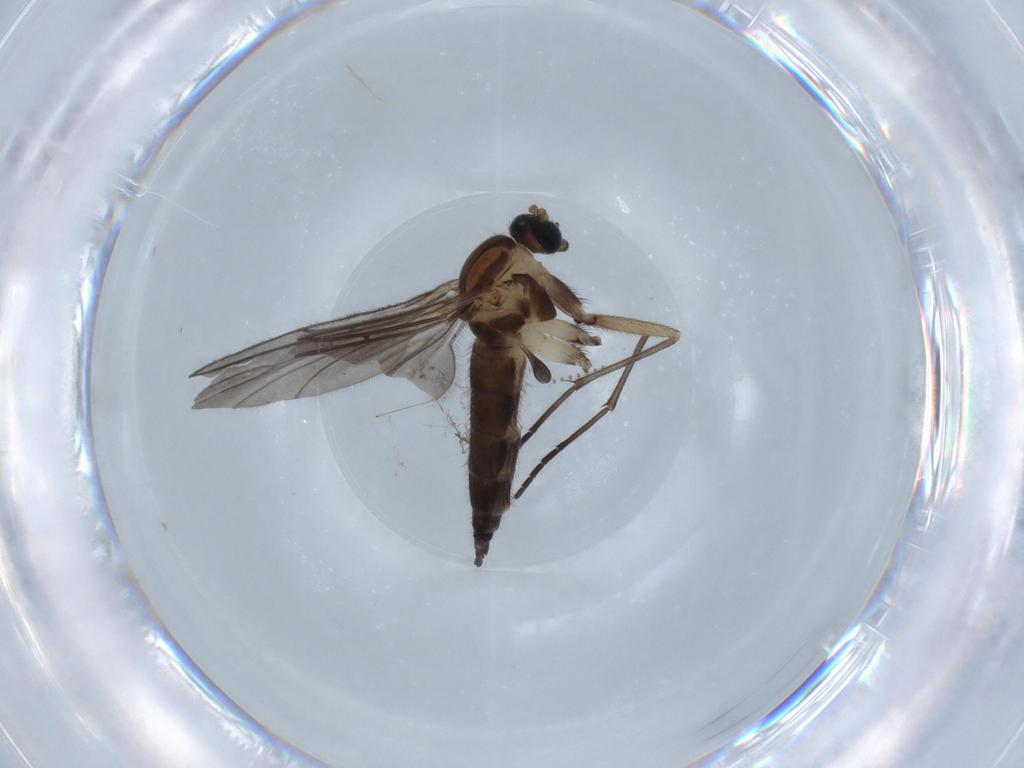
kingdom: Animalia
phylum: Arthropoda
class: Insecta
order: Diptera
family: Sciaridae
